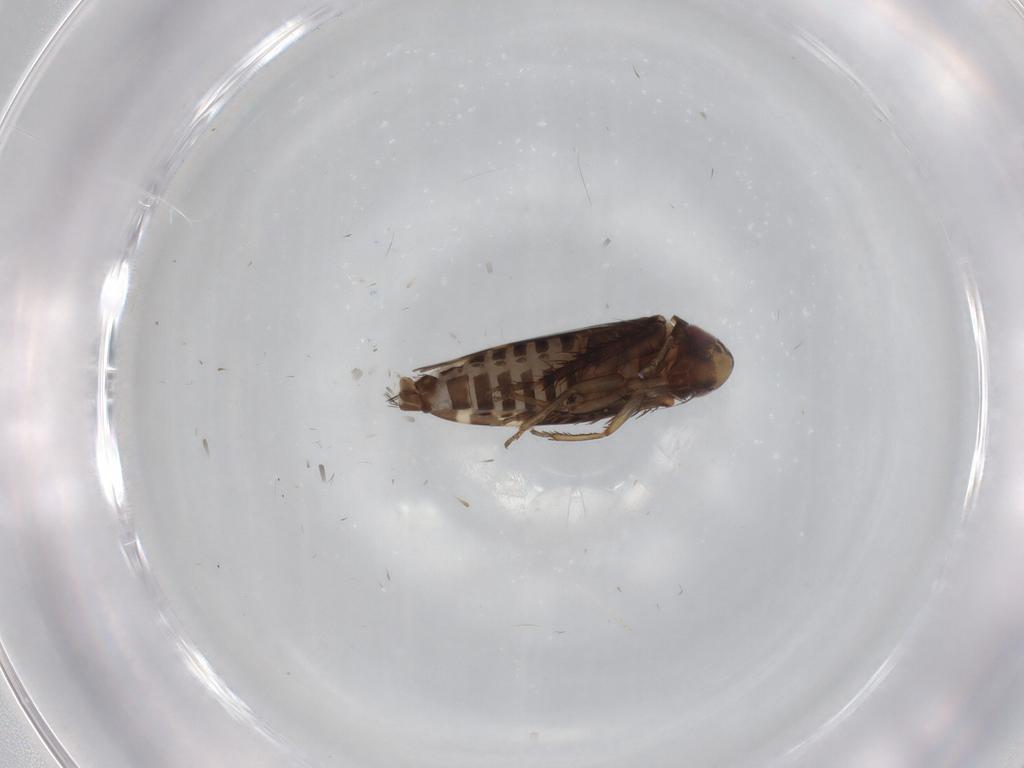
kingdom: Animalia
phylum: Arthropoda
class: Insecta
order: Hemiptera
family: Cicadellidae
